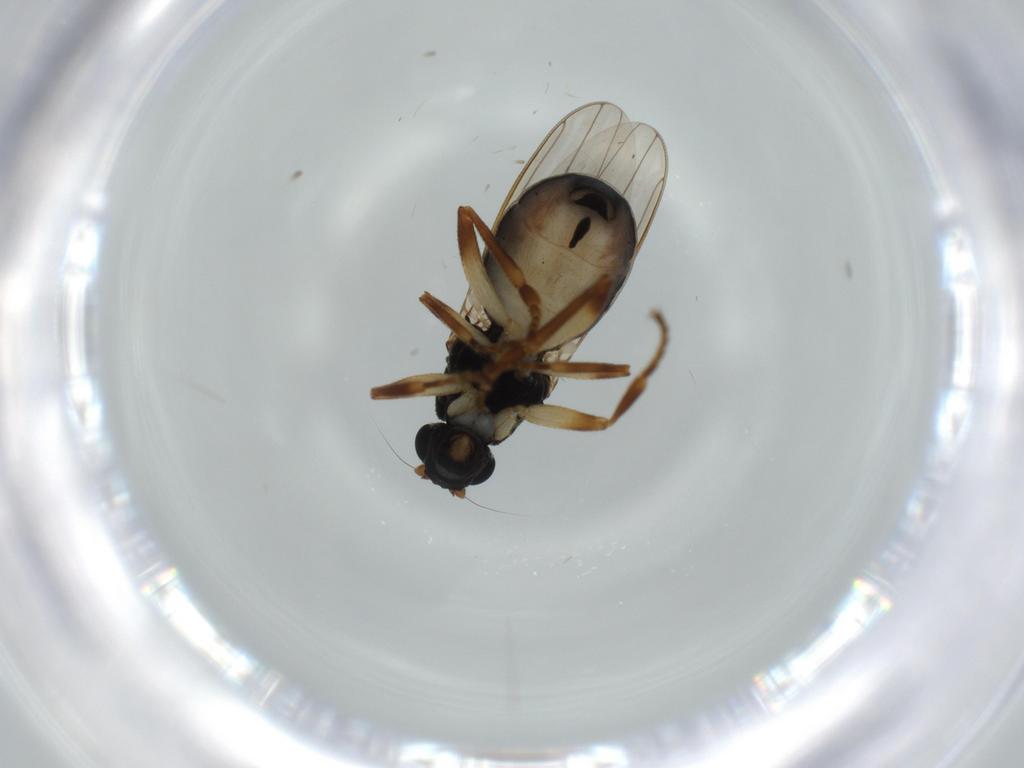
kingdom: Animalia
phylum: Arthropoda
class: Insecta
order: Diptera
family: Sphaeroceridae
